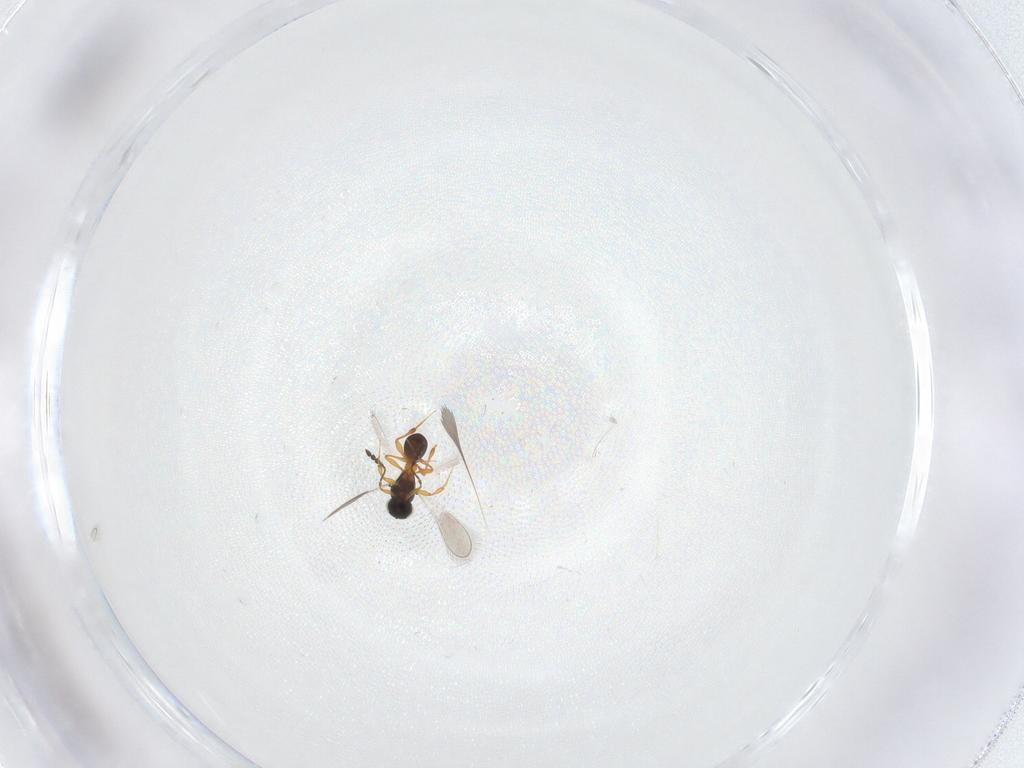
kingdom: Animalia
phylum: Arthropoda
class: Insecta
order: Hymenoptera
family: Platygastridae
